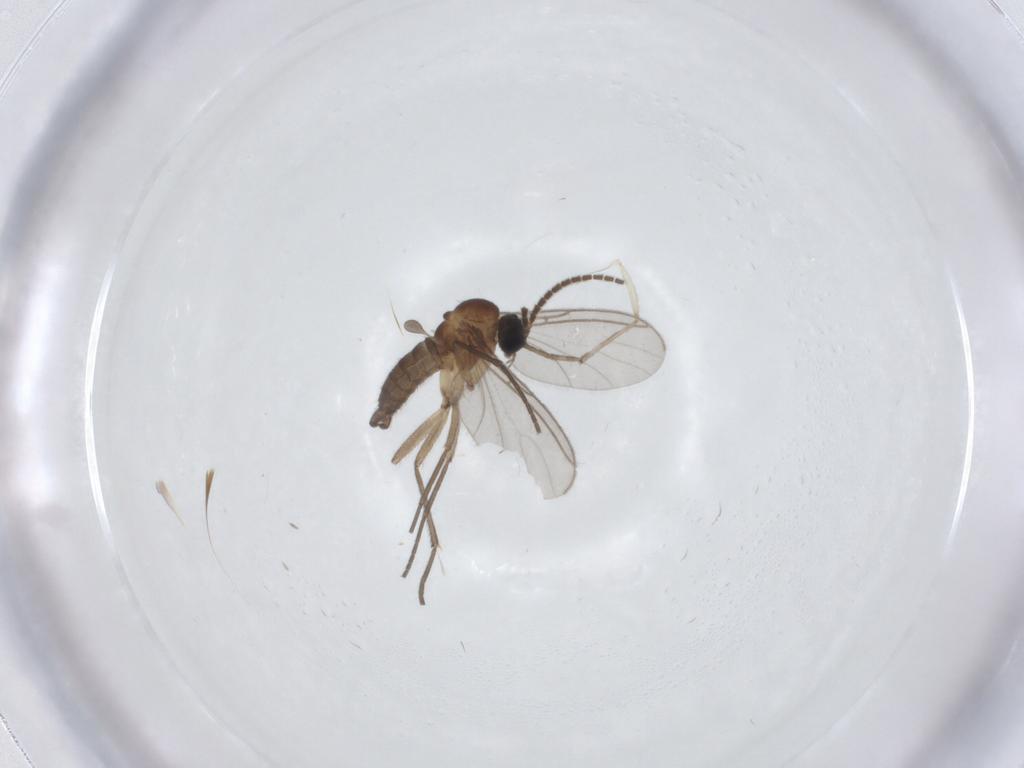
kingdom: Animalia
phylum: Arthropoda
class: Insecta
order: Diptera
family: Sciaridae
